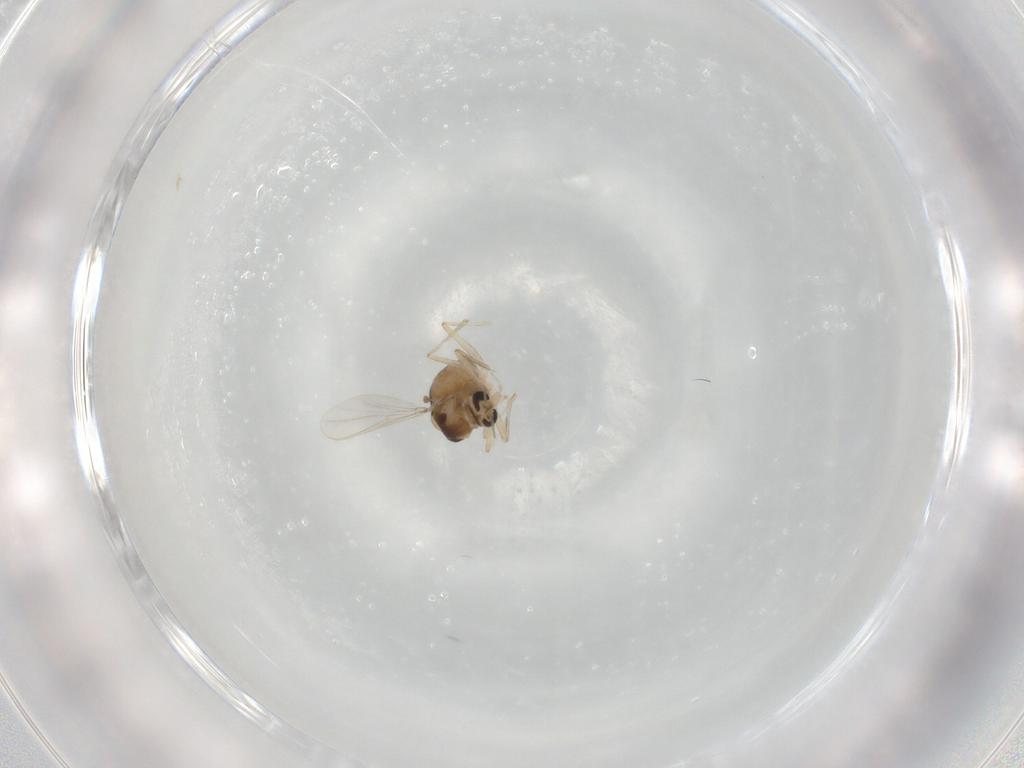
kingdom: Animalia
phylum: Arthropoda
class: Insecta
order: Diptera
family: Chironomidae
